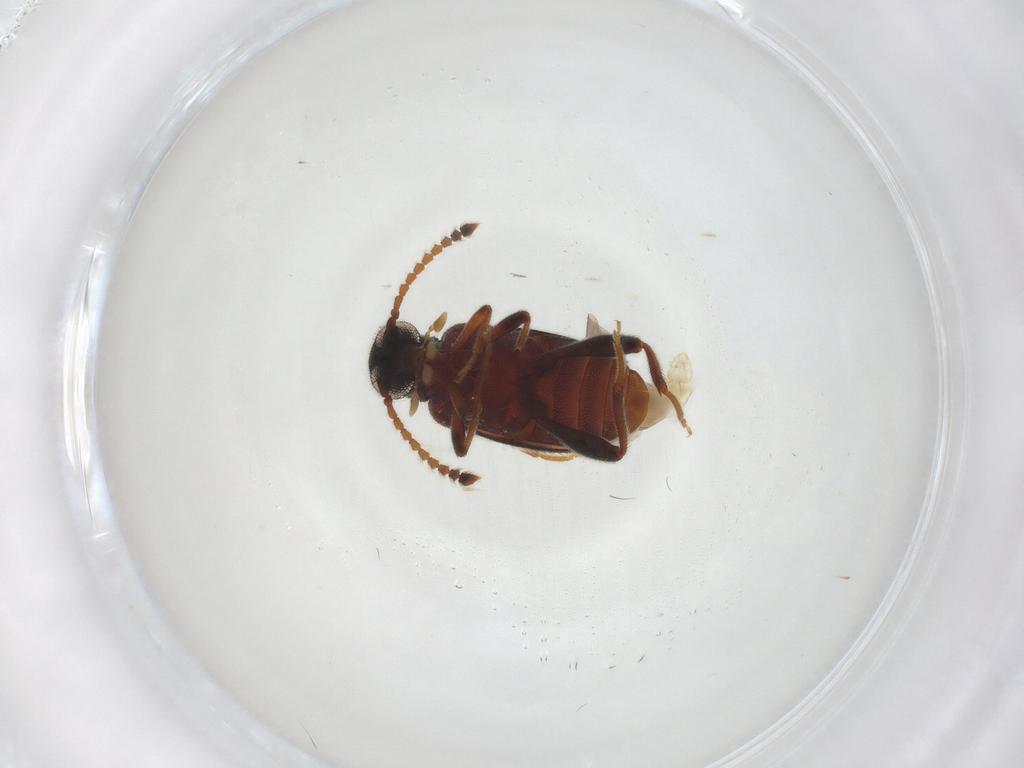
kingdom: Animalia
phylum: Arthropoda
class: Insecta
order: Coleoptera
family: Aderidae
